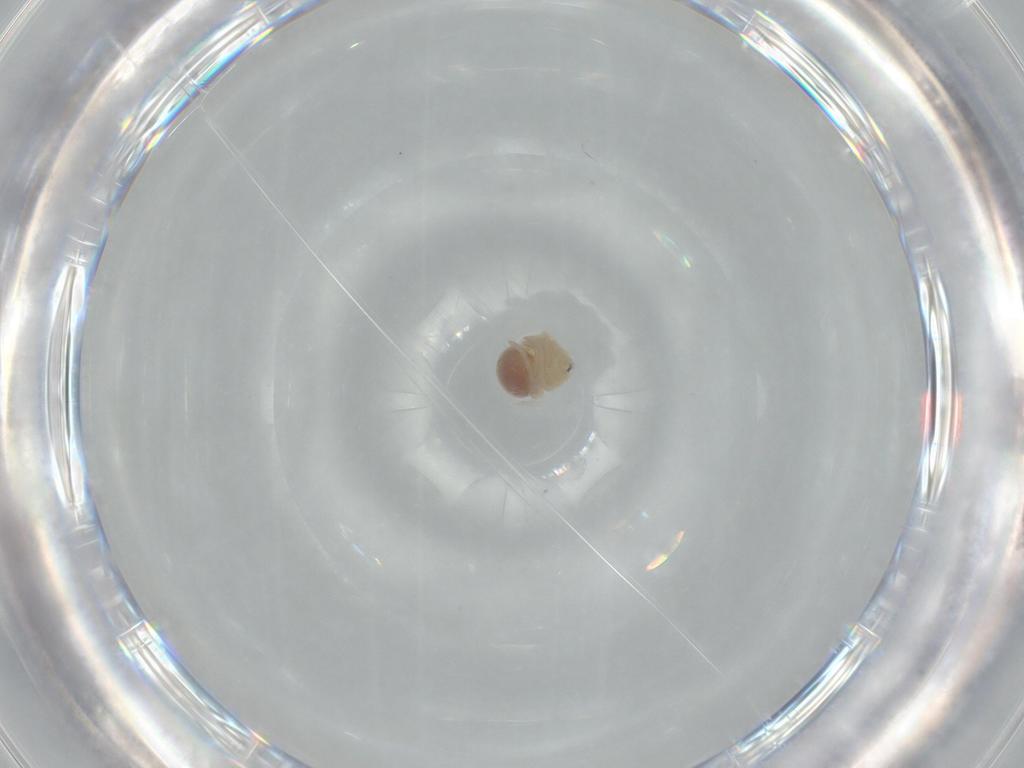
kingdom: Animalia
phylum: Arthropoda
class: Arachnida
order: Araneae
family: Pholcidae
